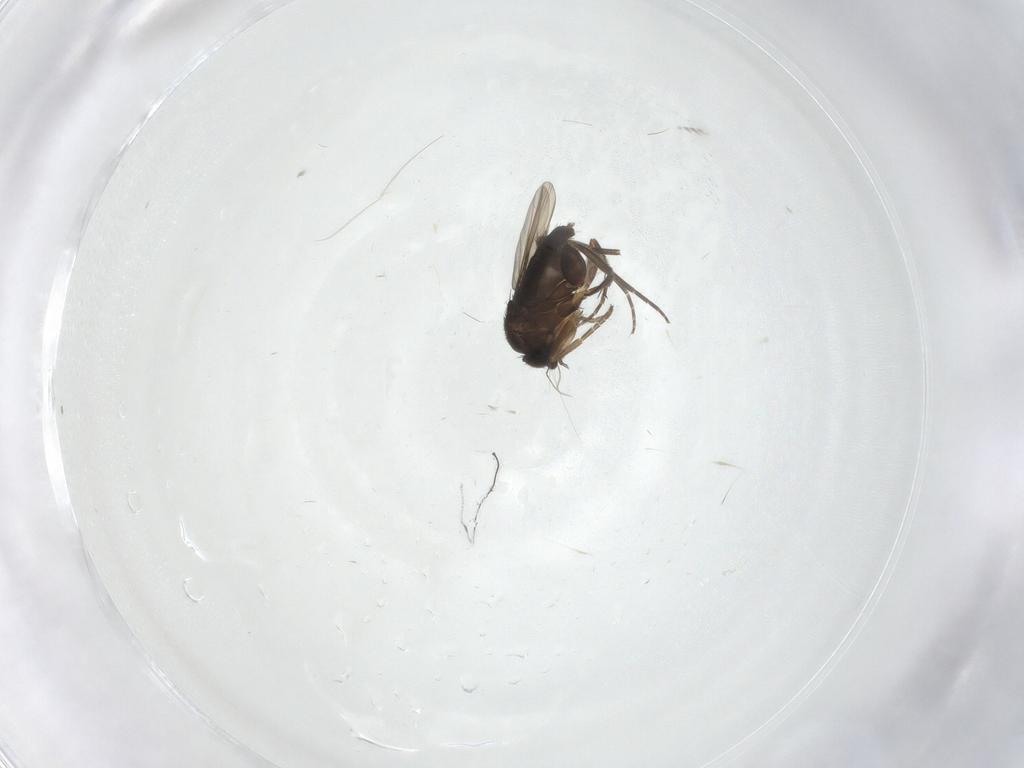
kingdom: Animalia
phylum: Arthropoda
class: Insecta
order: Diptera
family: Phoridae
